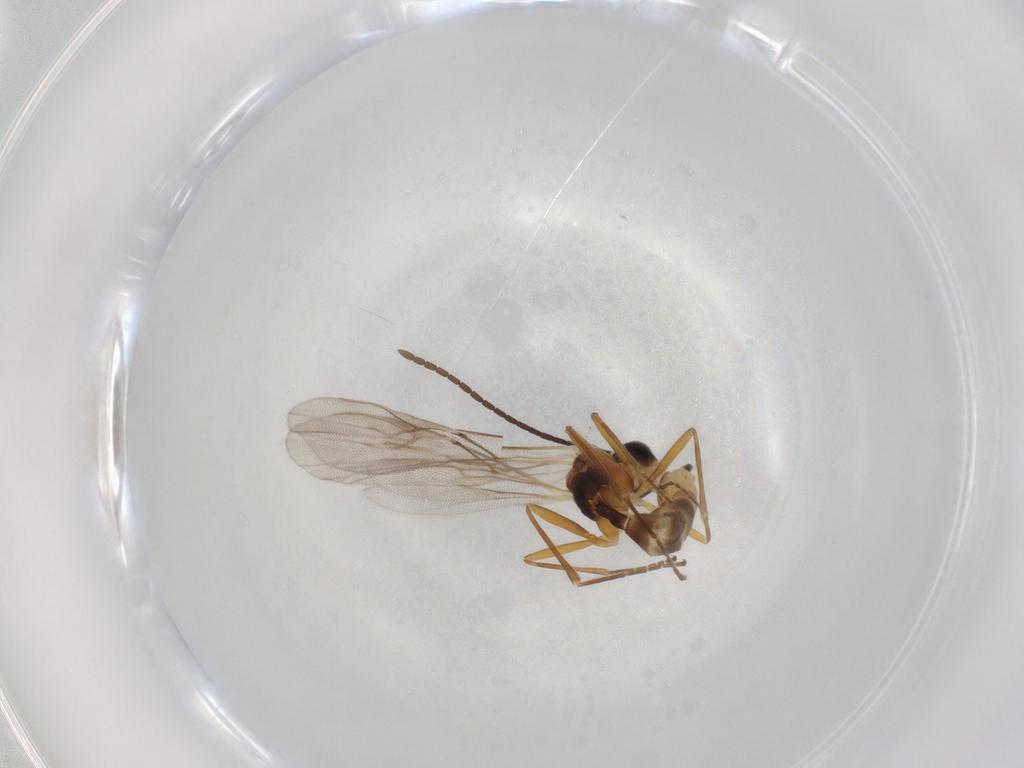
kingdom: Animalia
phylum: Arthropoda
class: Insecta
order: Hymenoptera
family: Braconidae
